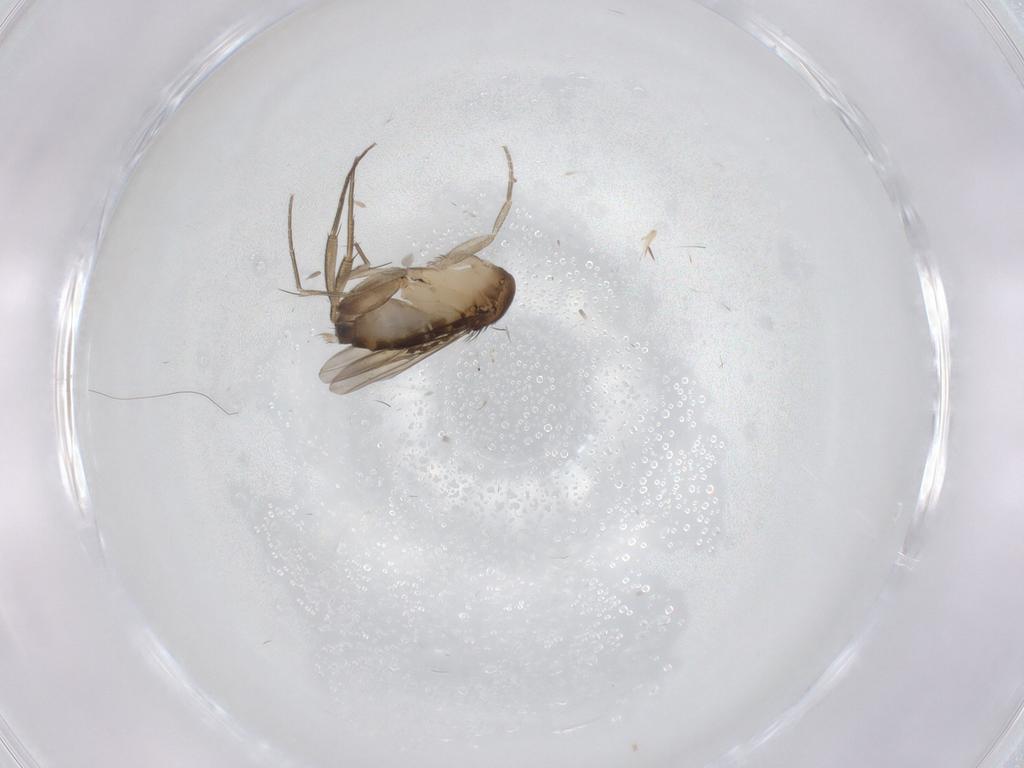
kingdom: Animalia
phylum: Arthropoda
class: Insecta
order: Diptera
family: Phoridae
